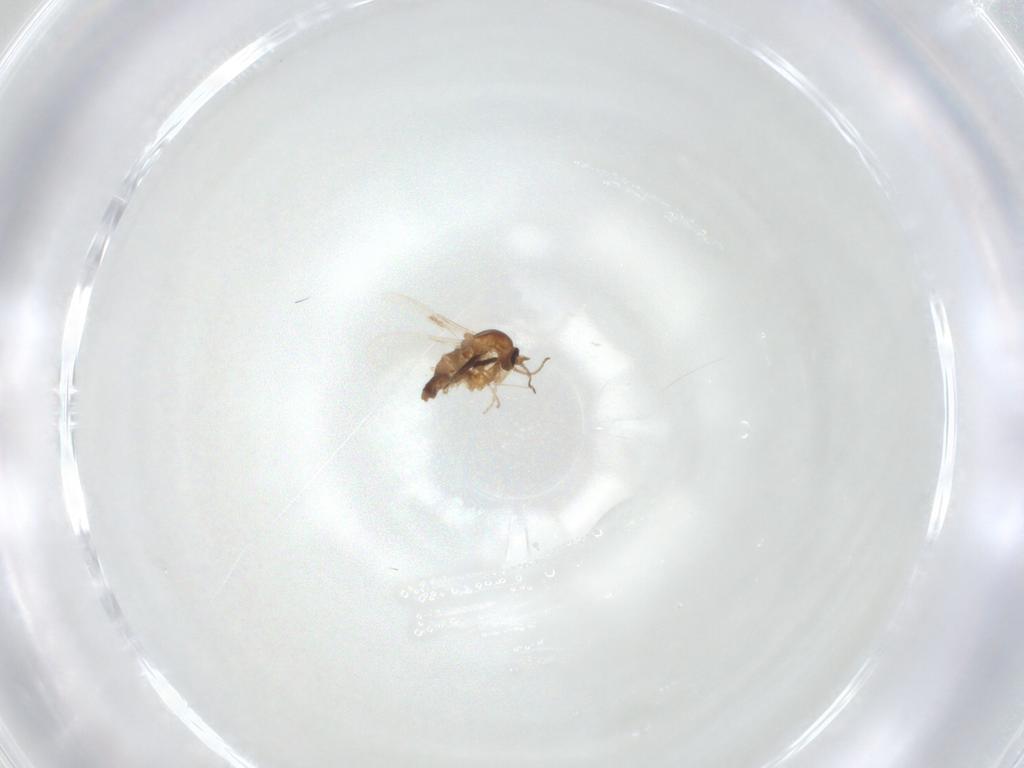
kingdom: Animalia
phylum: Arthropoda
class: Insecta
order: Diptera
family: Ceratopogonidae
